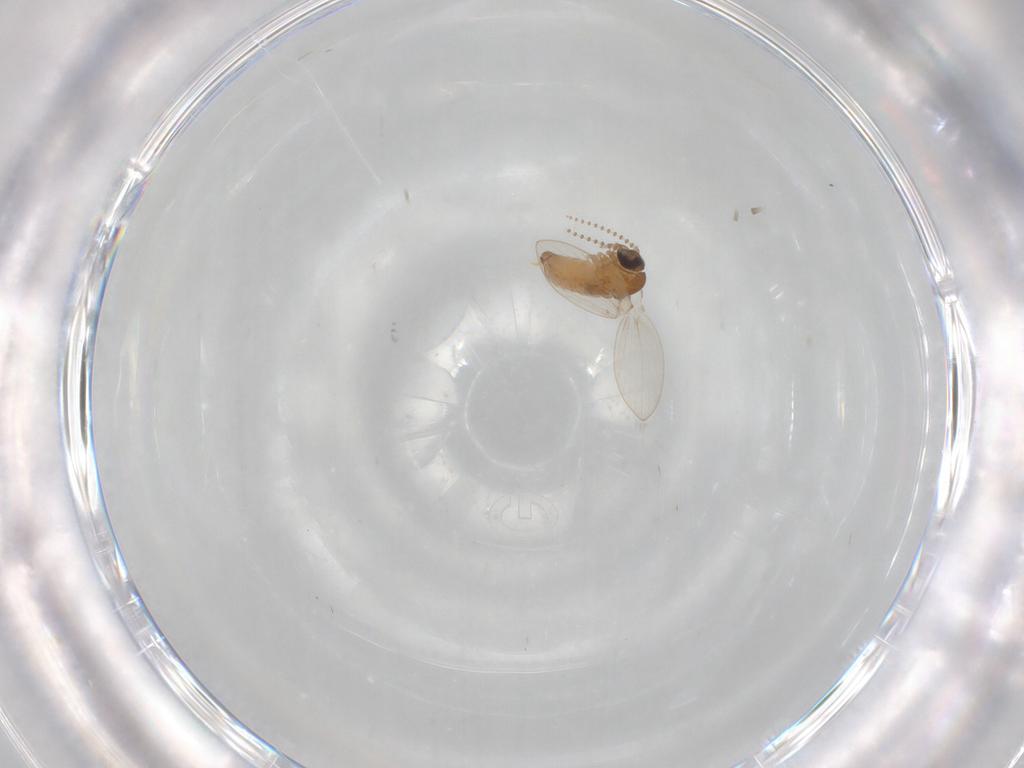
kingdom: Animalia
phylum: Arthropoda
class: Insecta
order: Diptera
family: Psychodidae
